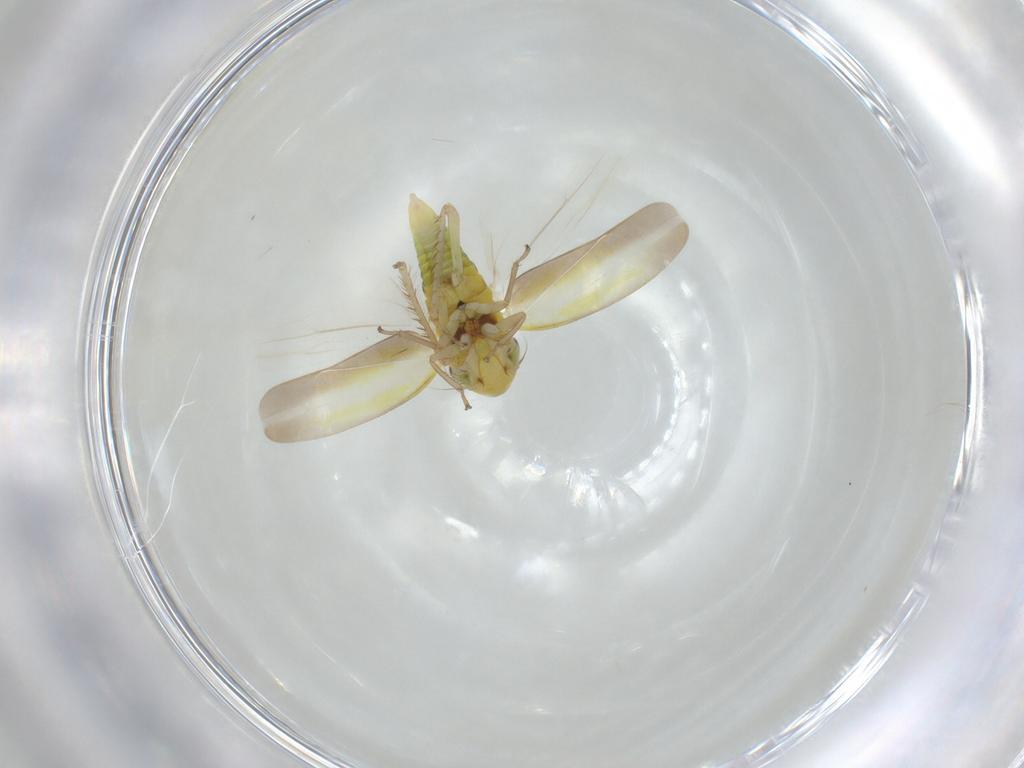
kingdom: Animalia
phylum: Arthropoda
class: Insecta
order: Hemiptera
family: Cicadellidae
